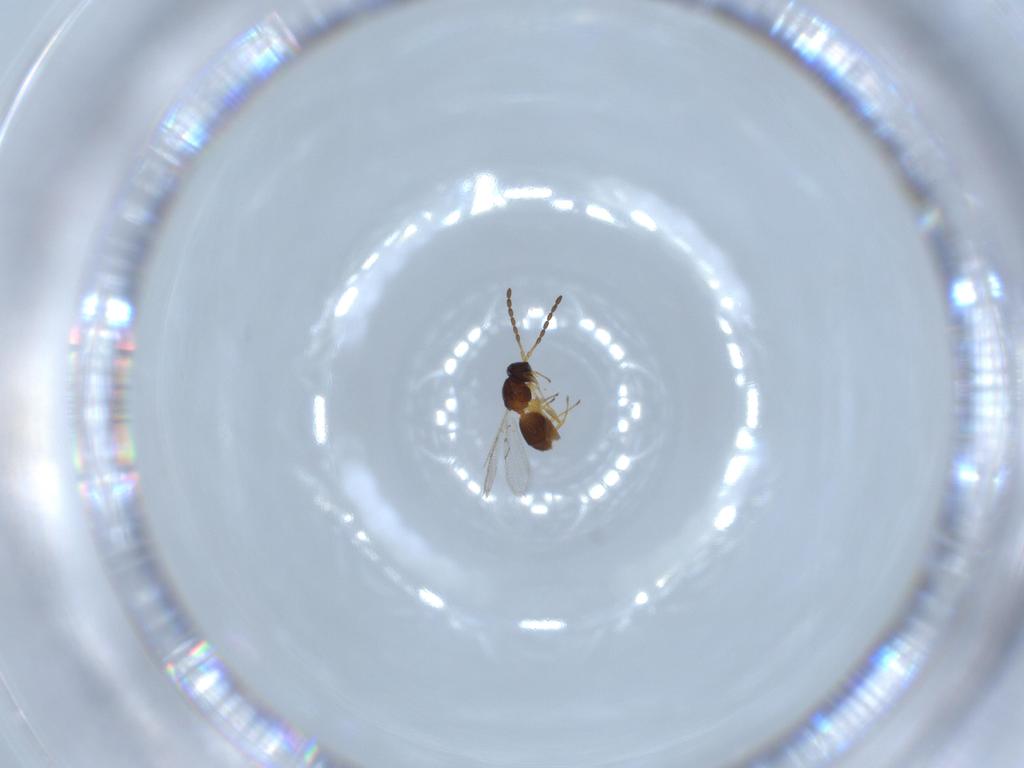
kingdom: Animalia
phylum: Arthropoda
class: Insecta
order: Hymenoptera
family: Figitidae
